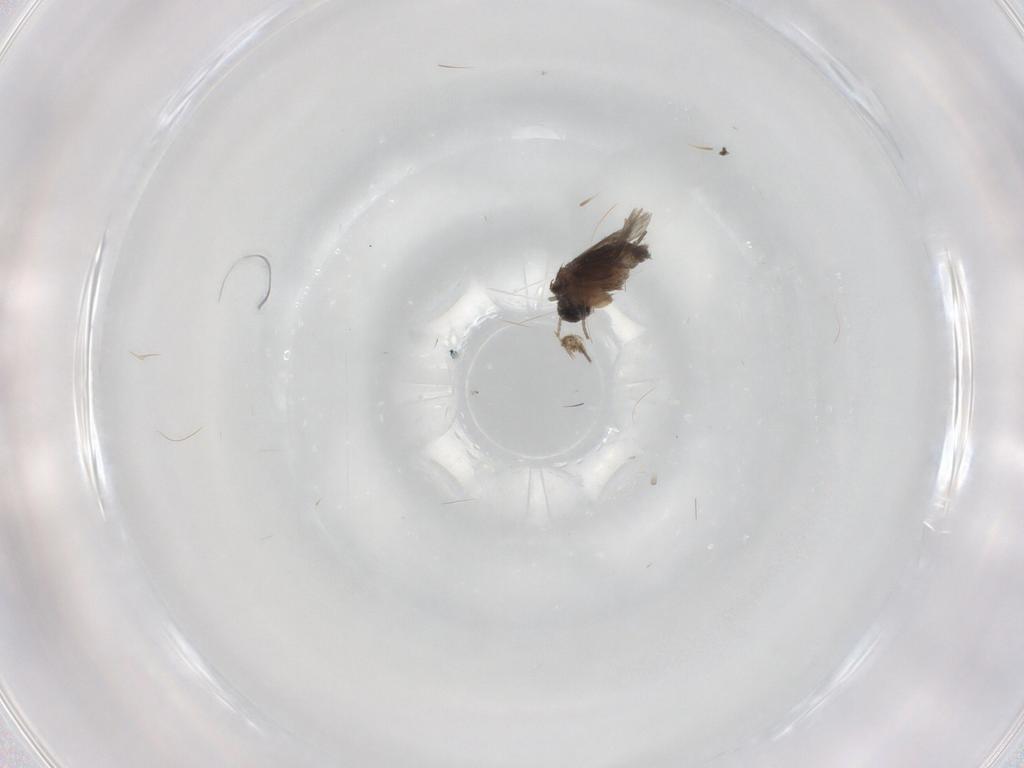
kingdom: Animalia
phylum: Arthropoda
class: Insecta
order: Diptera
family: Phoridae
